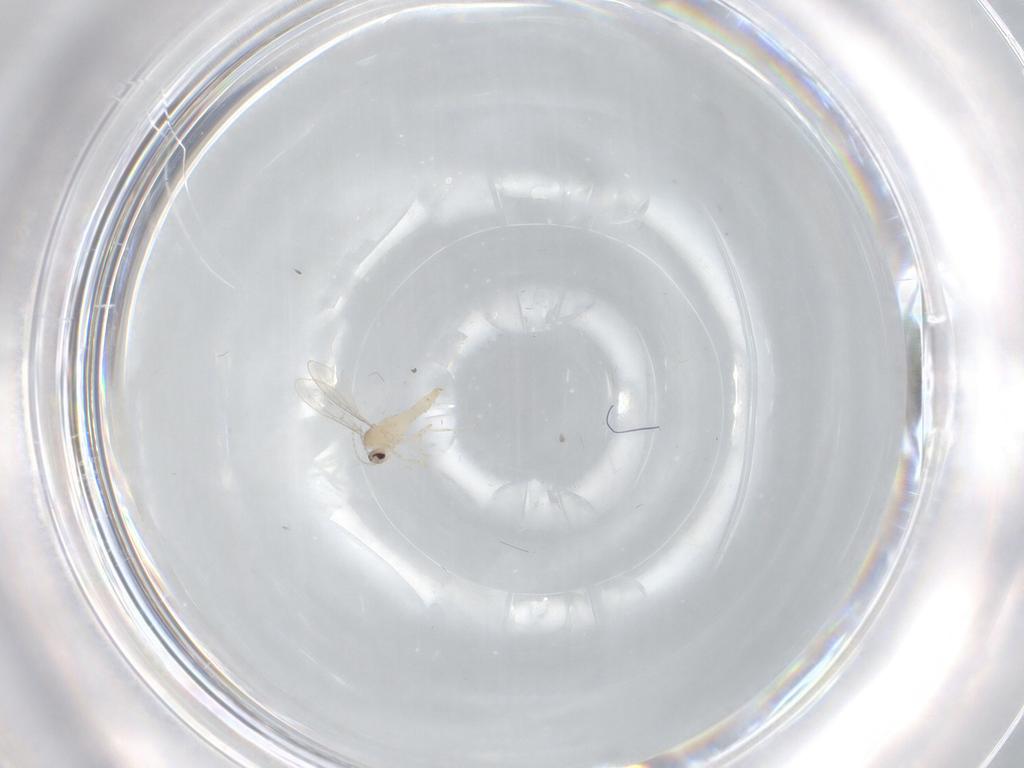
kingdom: Animalia
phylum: Arthropoda
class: Insecta
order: Diptera
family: Cecidomyiidae
